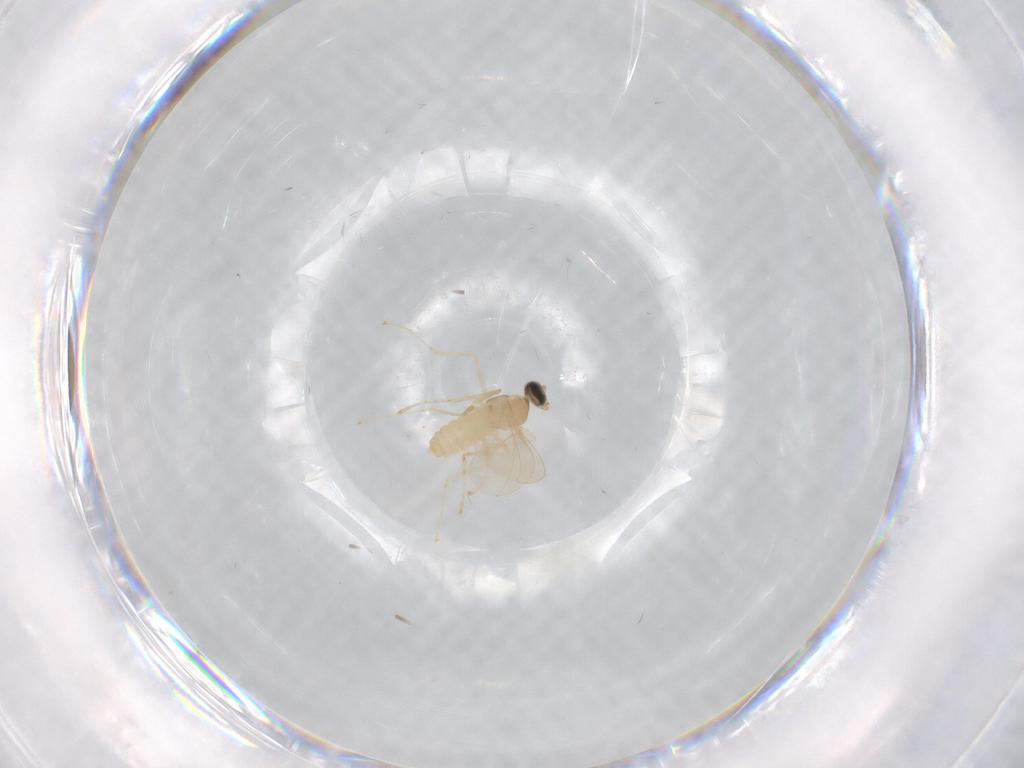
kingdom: Animalia
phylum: Arthropoda
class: Insecta
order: Diptera
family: Cecidomyiidae
